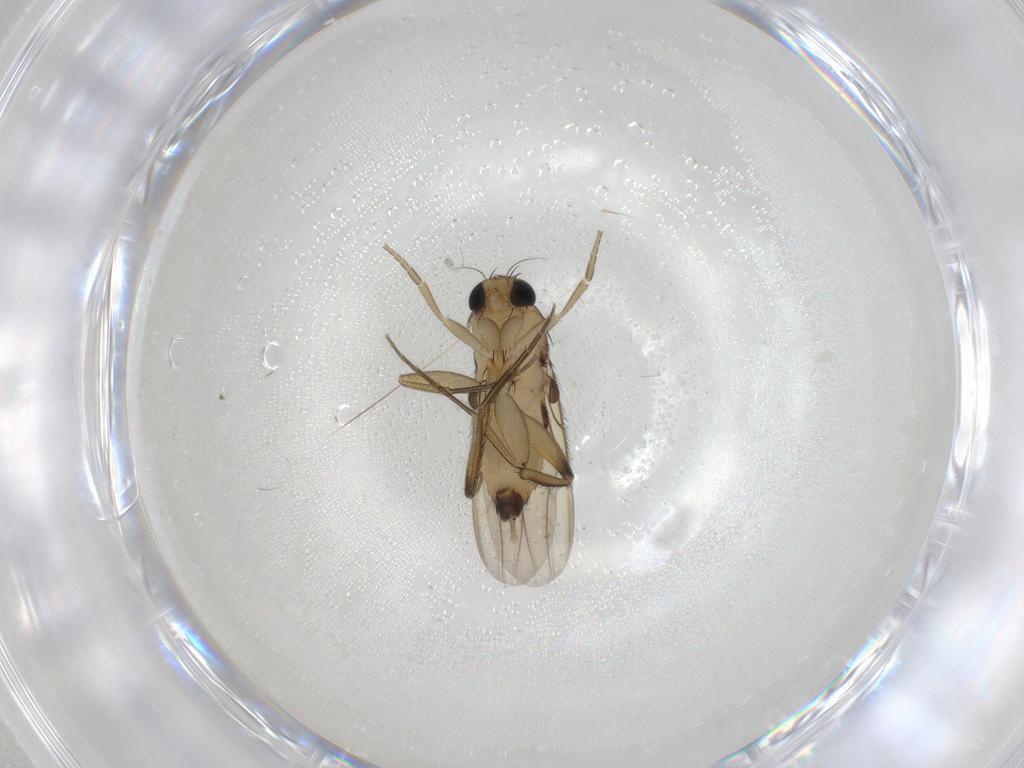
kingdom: Animalia
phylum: Arthropoda
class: Insecta
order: Diptera
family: Phoridae
